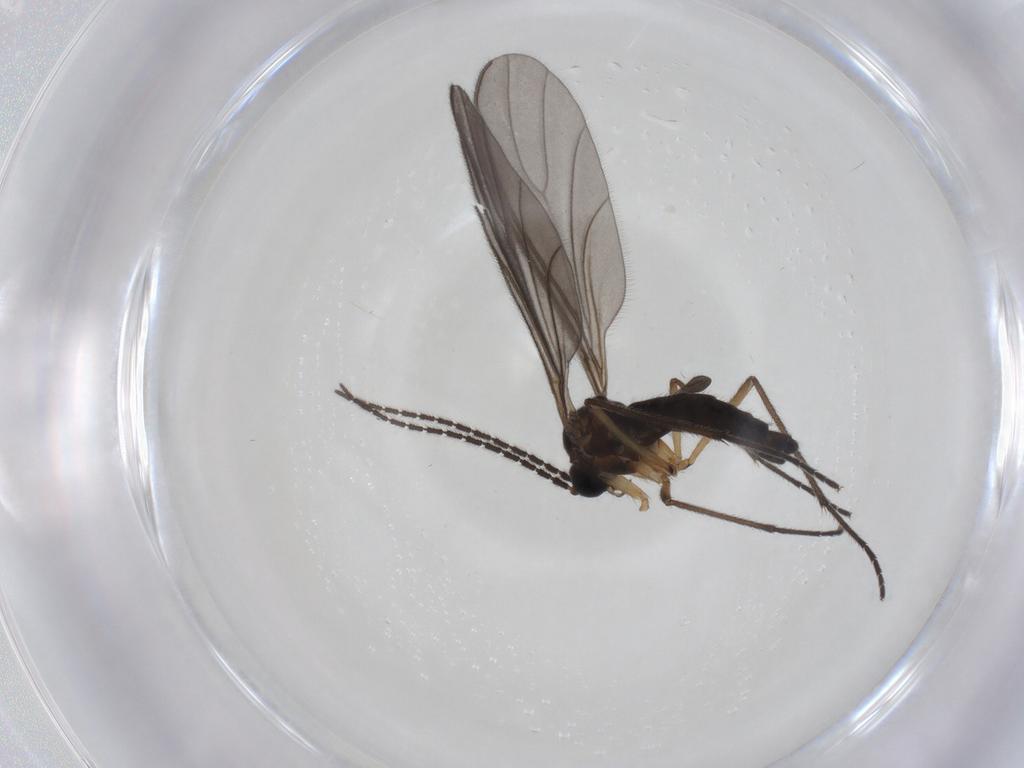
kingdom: Animalia
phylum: Arthropoda
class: Insecta
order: Diptera
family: Sciaridae
